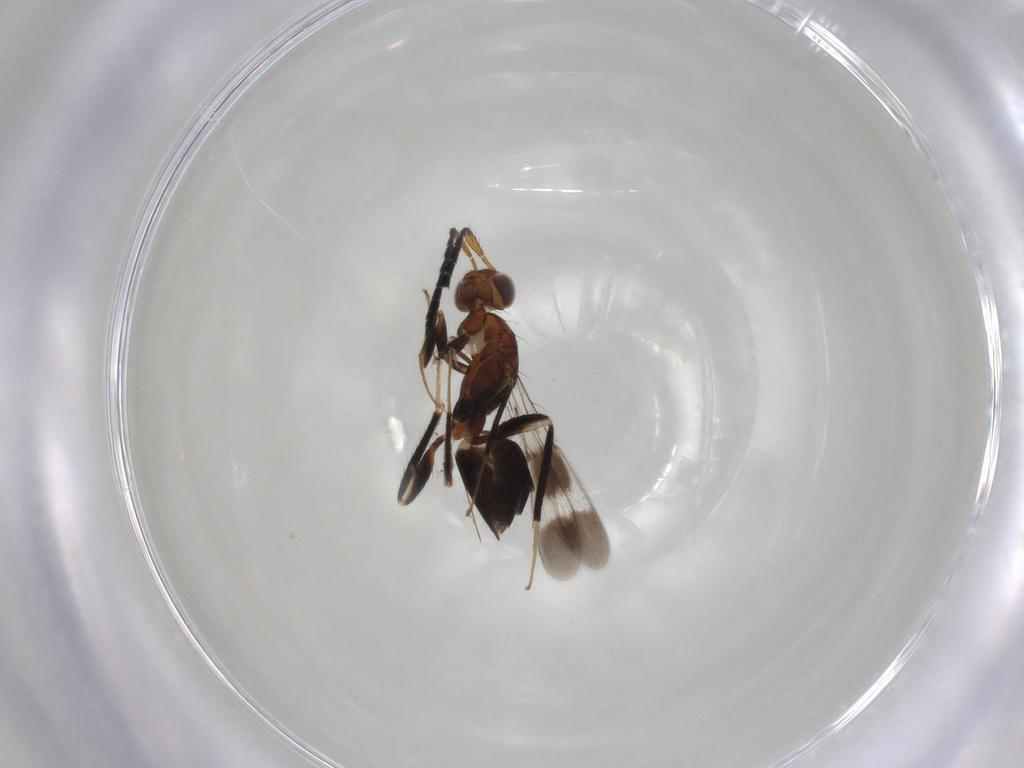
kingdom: Animalia
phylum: Arthropoda
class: Insecta
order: Hymenoptera
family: Mymaridae
